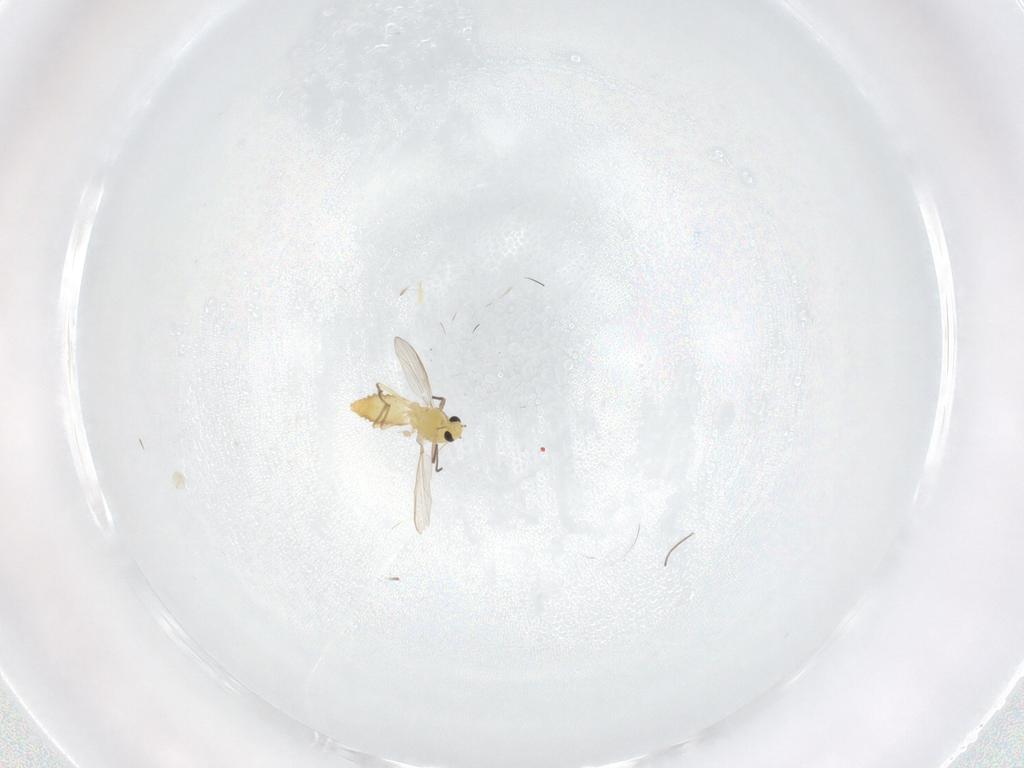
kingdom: Animalia
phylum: Arthropoda
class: Insecta
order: Diptera
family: Chironomidae
